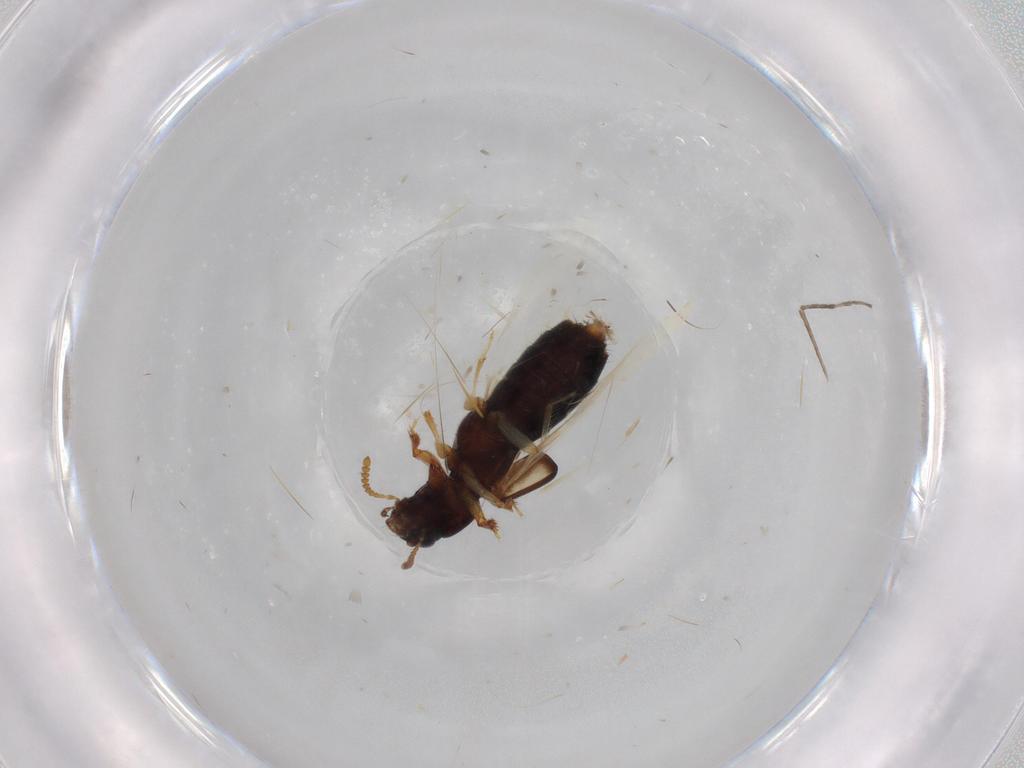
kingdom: Animalia
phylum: Arthropoda
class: Insecta
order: Coleoptera
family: Staphylinidae
